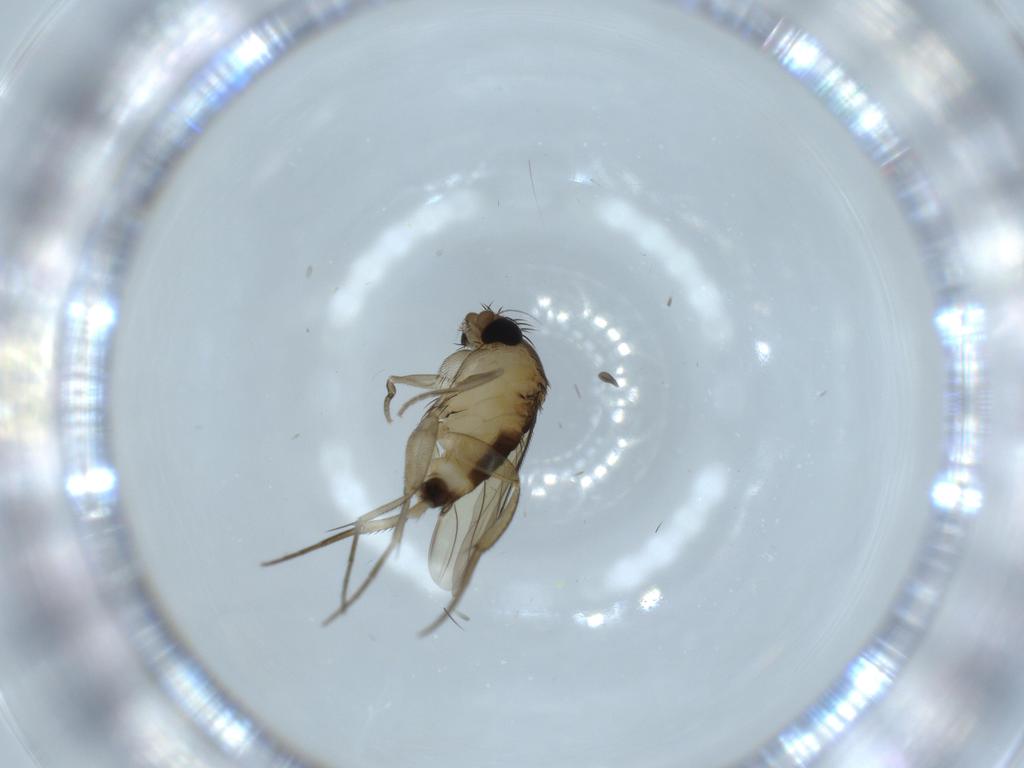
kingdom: Animalia
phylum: Arthropoda
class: Insecta
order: Diptera
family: Phoridae
